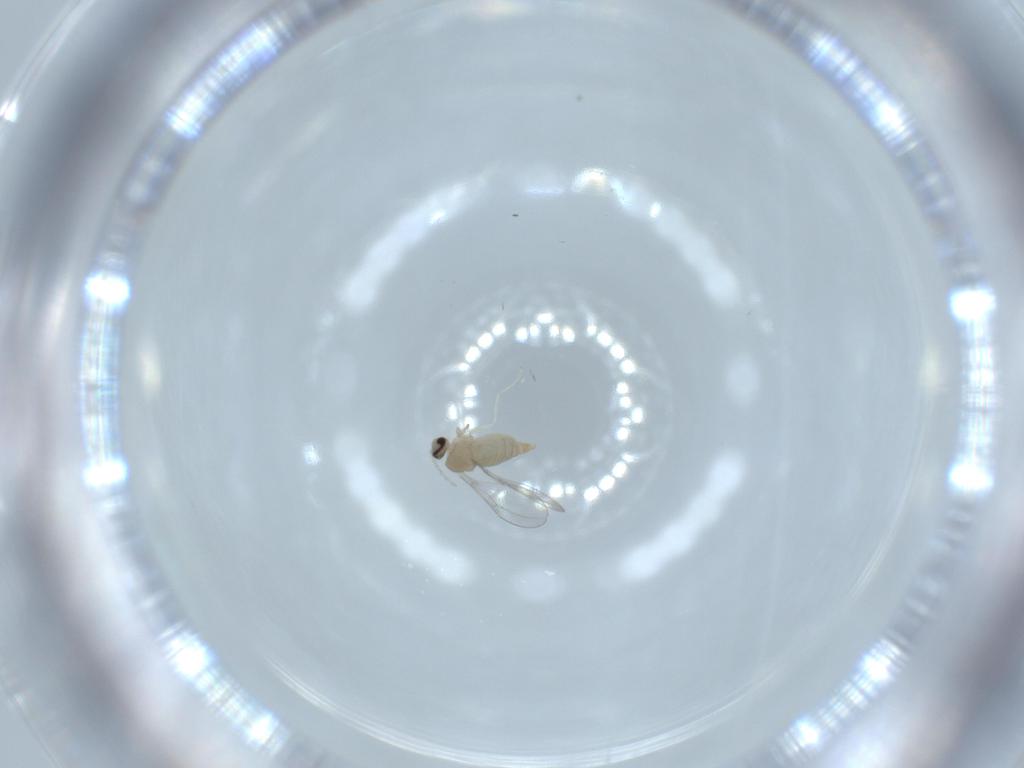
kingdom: Animalia
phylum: Arthropoda
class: Insecta
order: Diptera
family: Cecidomyiidae
